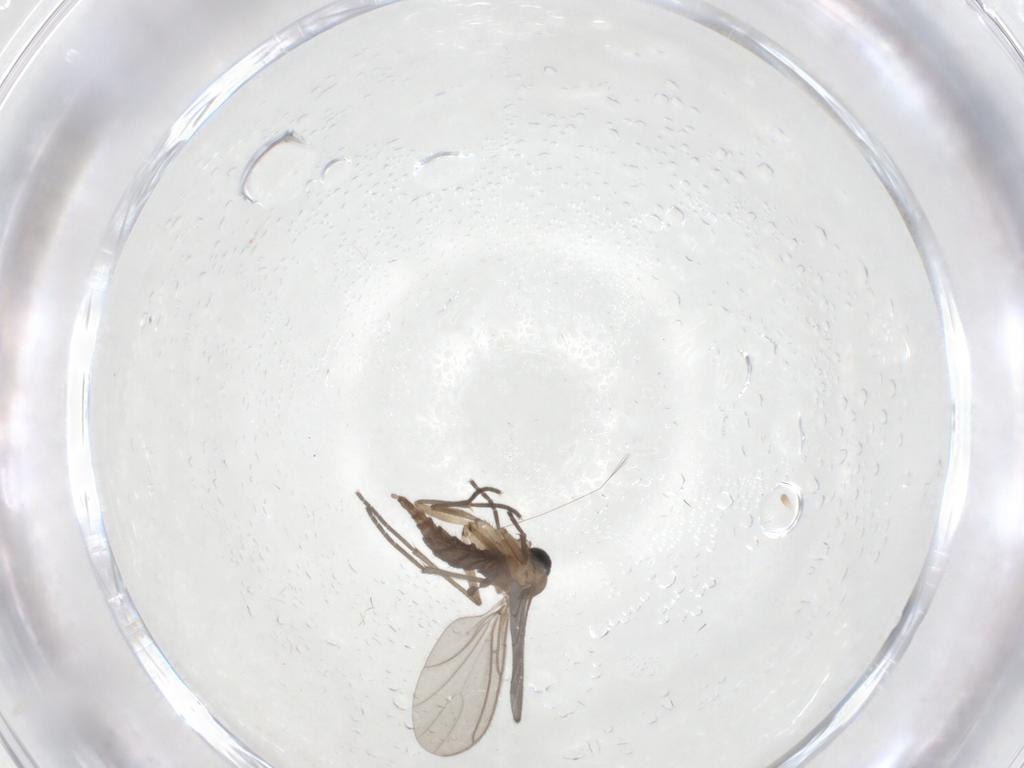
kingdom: Animalia
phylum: Arthropoda
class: Insecta
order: Diptera
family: Sciaridae
